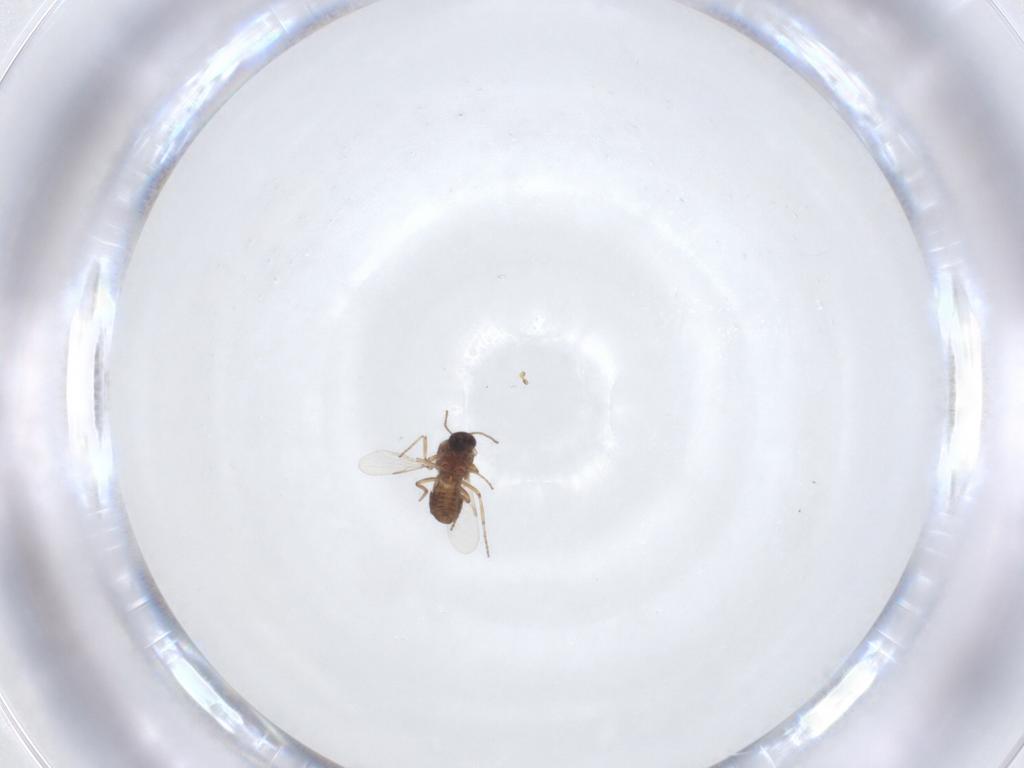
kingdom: Animalia
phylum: Arthropoda
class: Insecta
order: Diptera
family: Ceratopogonidae
